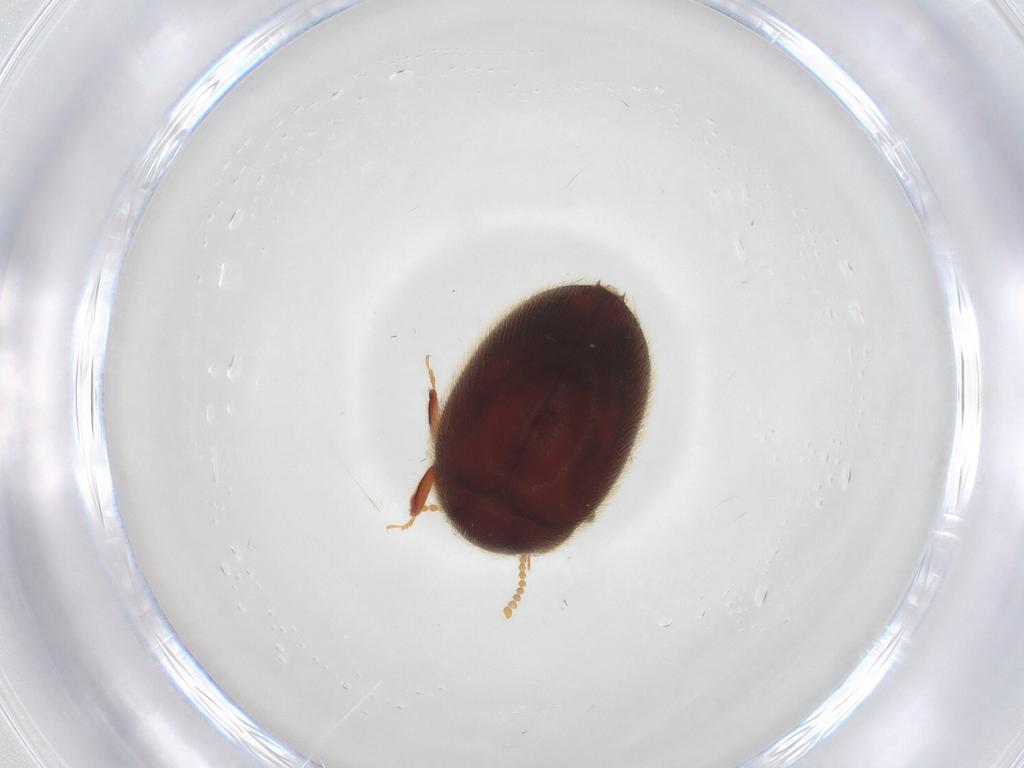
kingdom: Animalia
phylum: Arthropoda
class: Insecta
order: Coleoptera
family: Limnichidae
